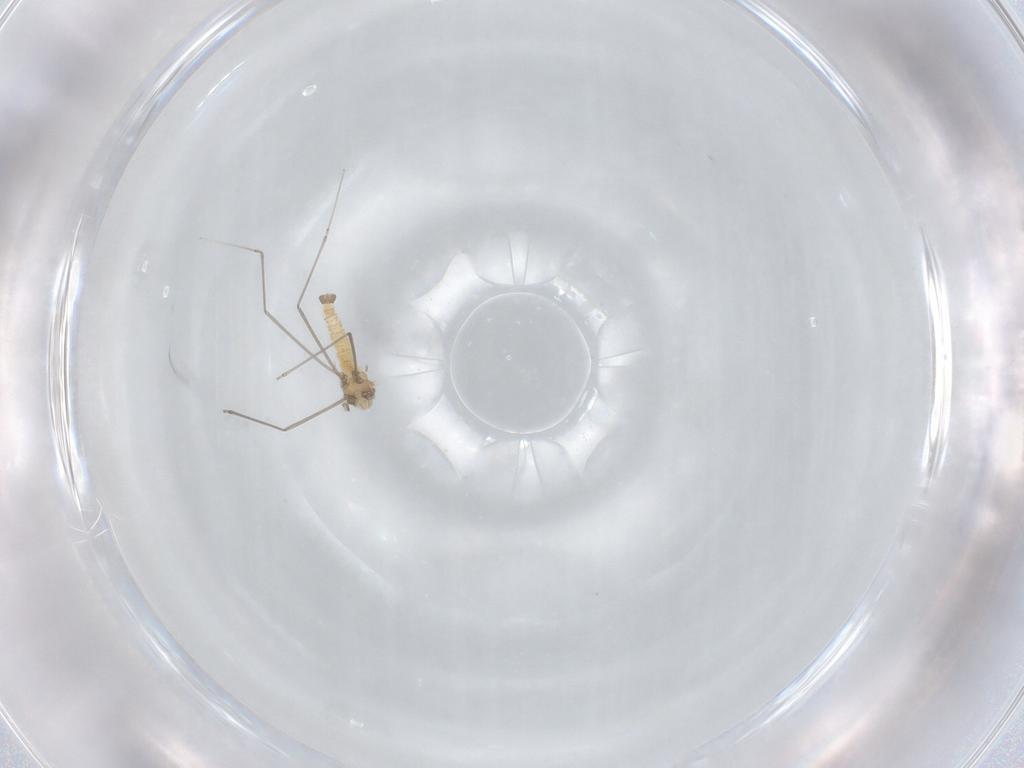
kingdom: Animalia
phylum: Arthropoda
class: Insecta
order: Diptera
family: Cecidomyiidae
